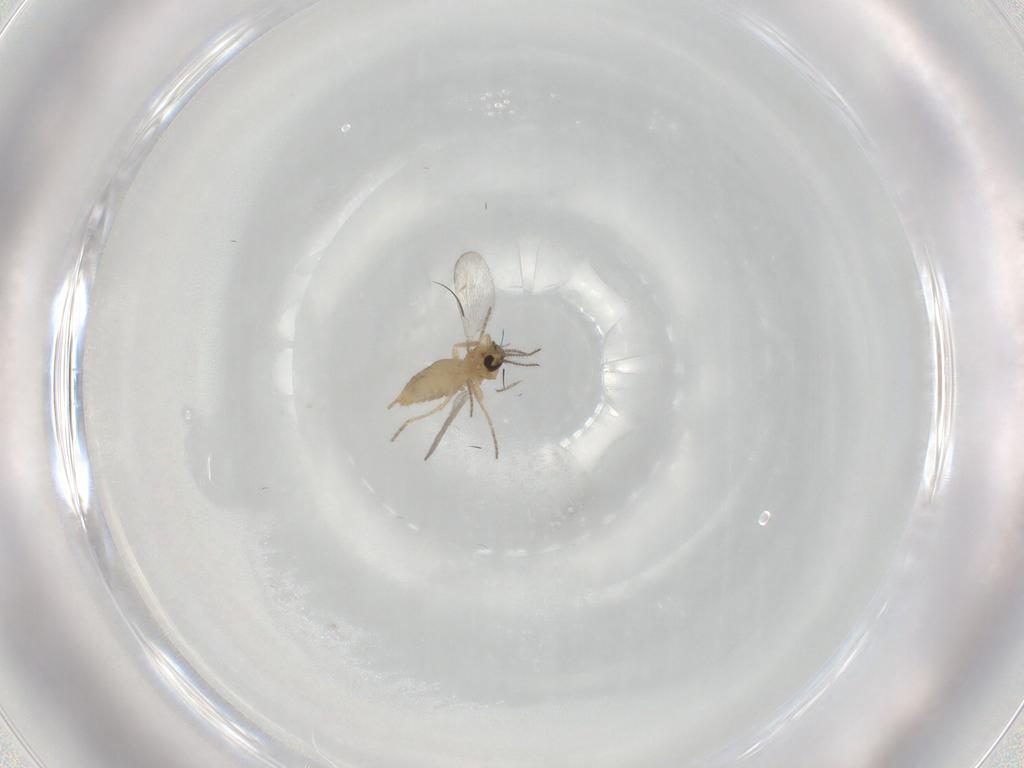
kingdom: Animalia
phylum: Arthropoda
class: Insecta
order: Diptera
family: Ceratopogonidae
